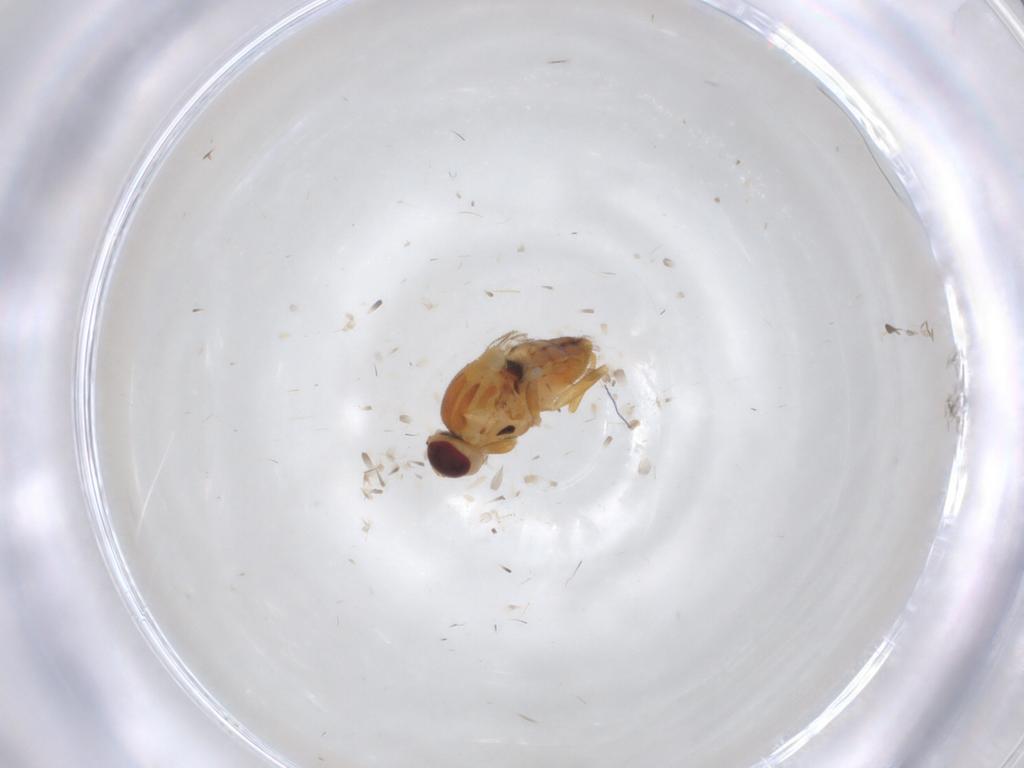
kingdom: Animalia
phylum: Arthropoda
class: Insecta
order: Diptera
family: Chloropidae
